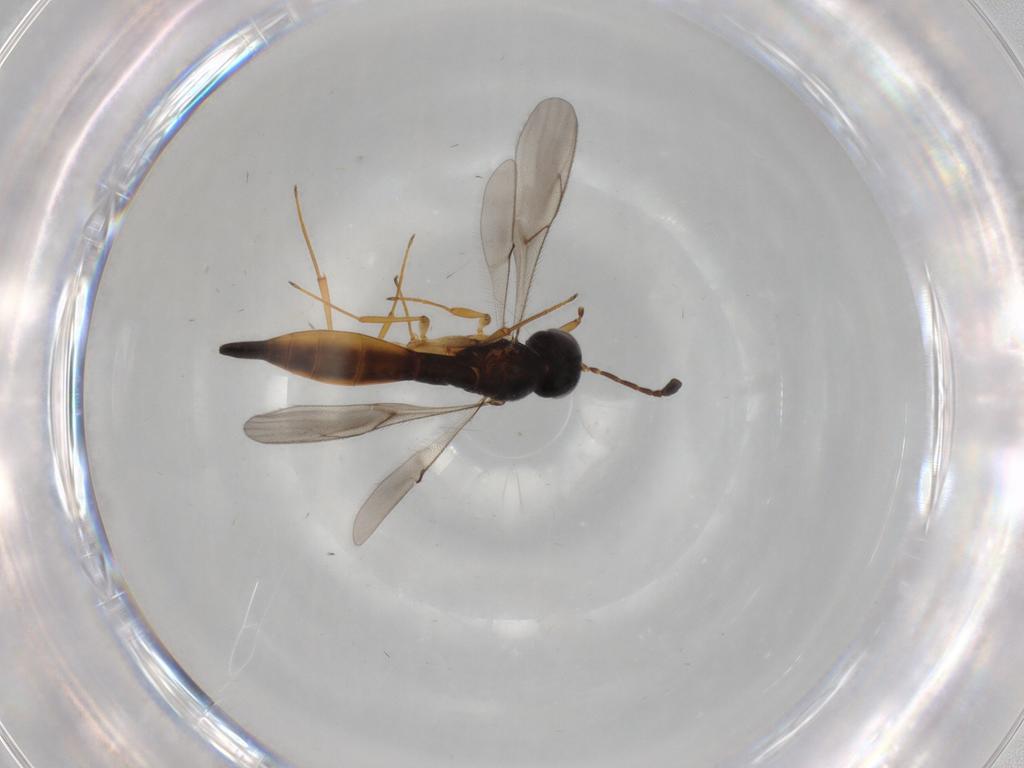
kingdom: Animalia
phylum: Arthropoda
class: Insecta
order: Hymenoptera
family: Scelionidae
